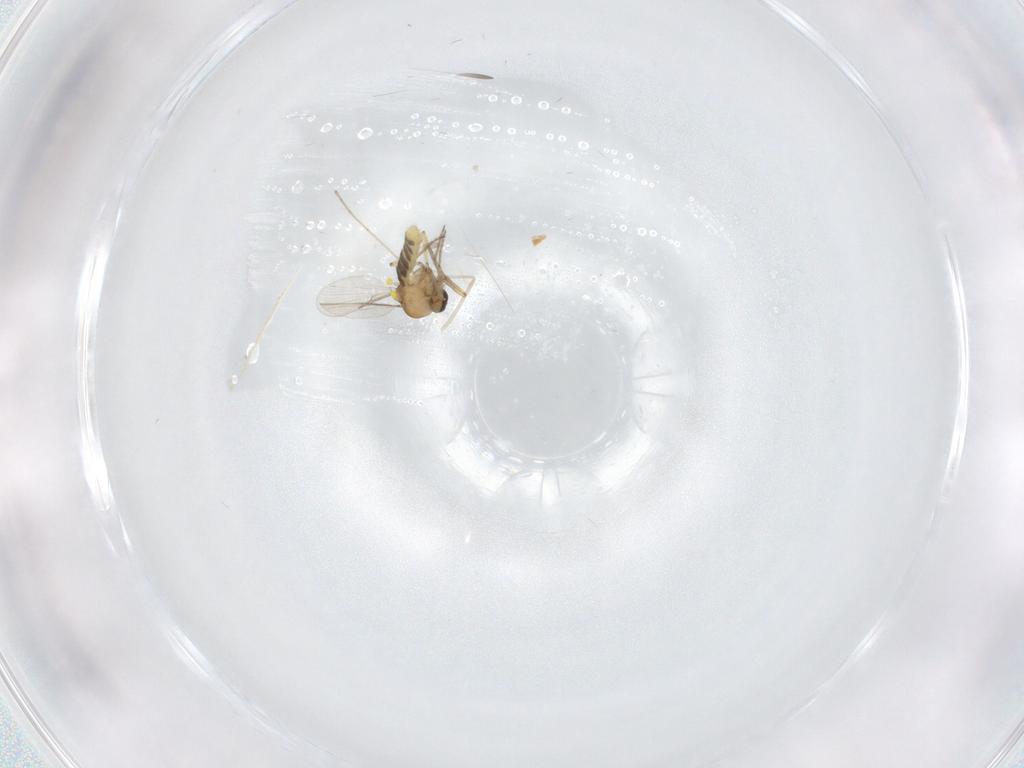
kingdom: Animalia
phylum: Arthropoda
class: Insecta
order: Diptera
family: Cecidomyiidae
